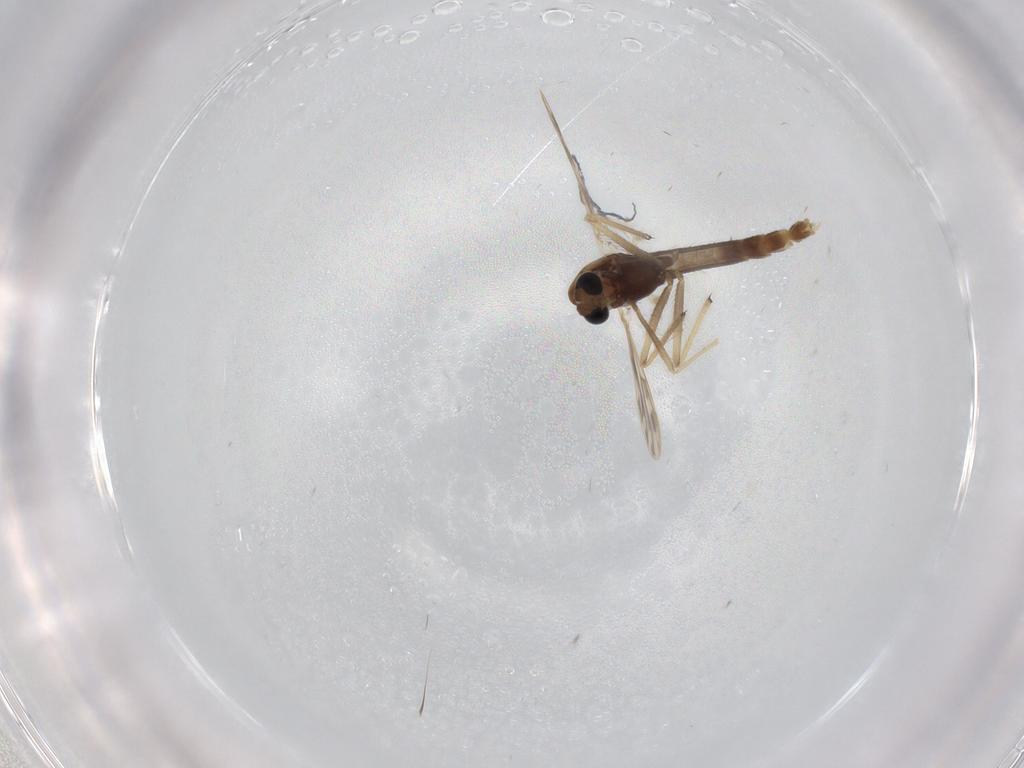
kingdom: Animalia
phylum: Arthropoda
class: Insecta
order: Diptera
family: Chironomidae
